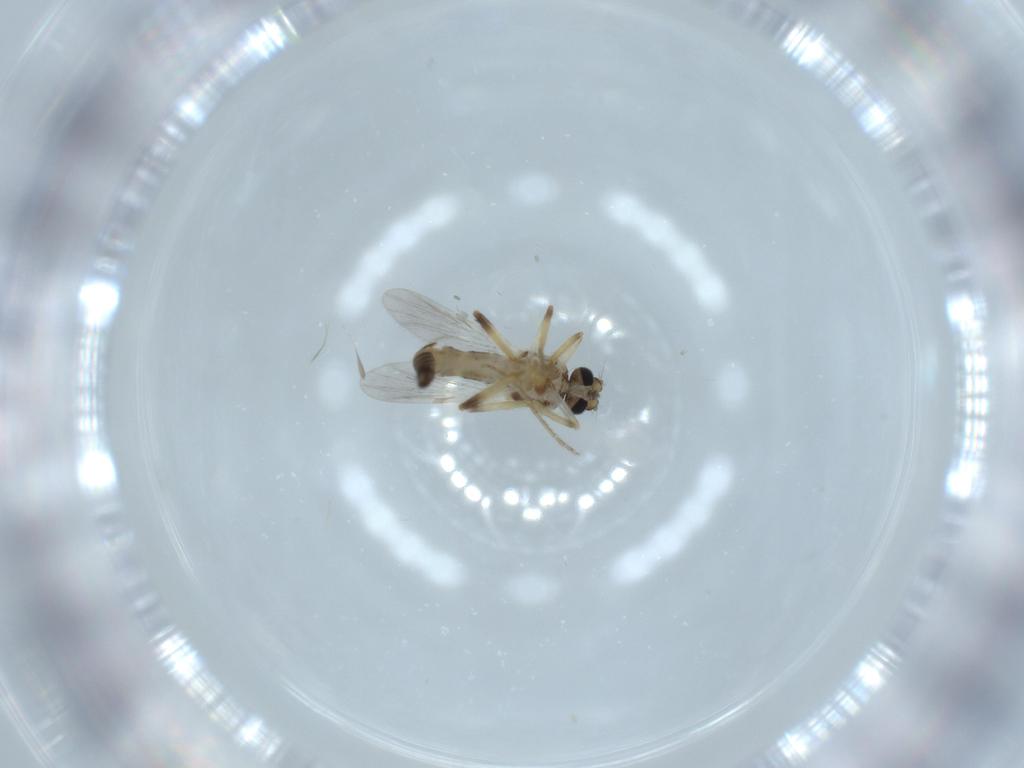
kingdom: Animalia
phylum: Arthropoda
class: Insecta
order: Diptera
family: Ceratopogonidae
